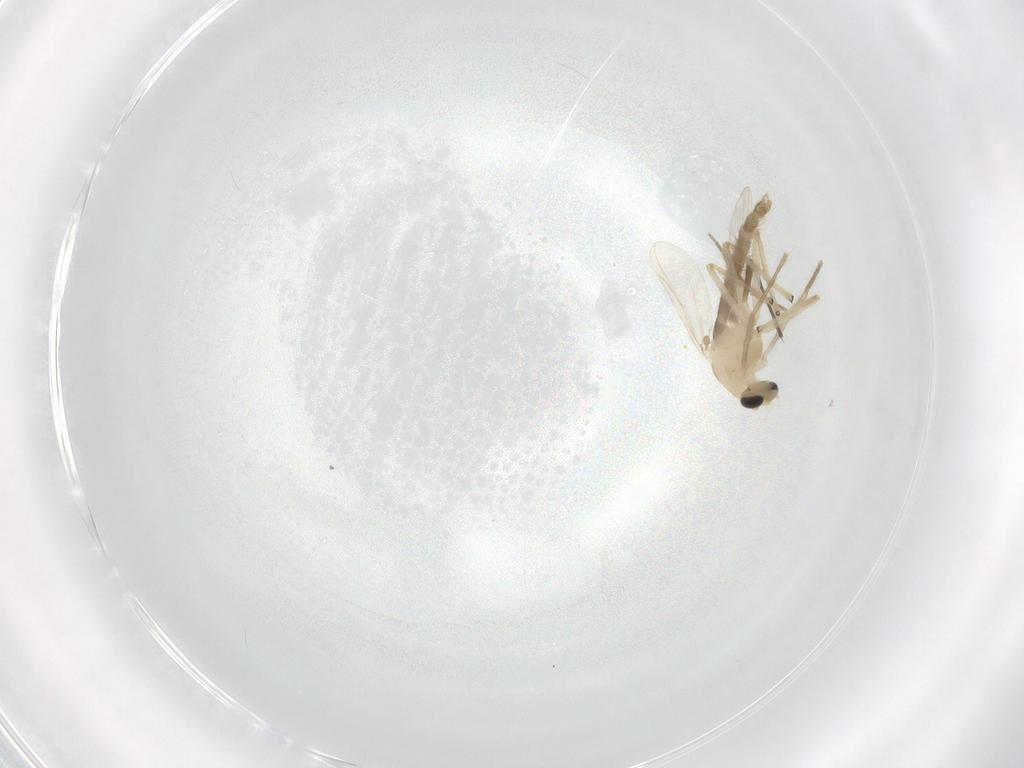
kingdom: Animalia
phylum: Arthropoda
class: Insecta
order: Diptera
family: Chironomidae
